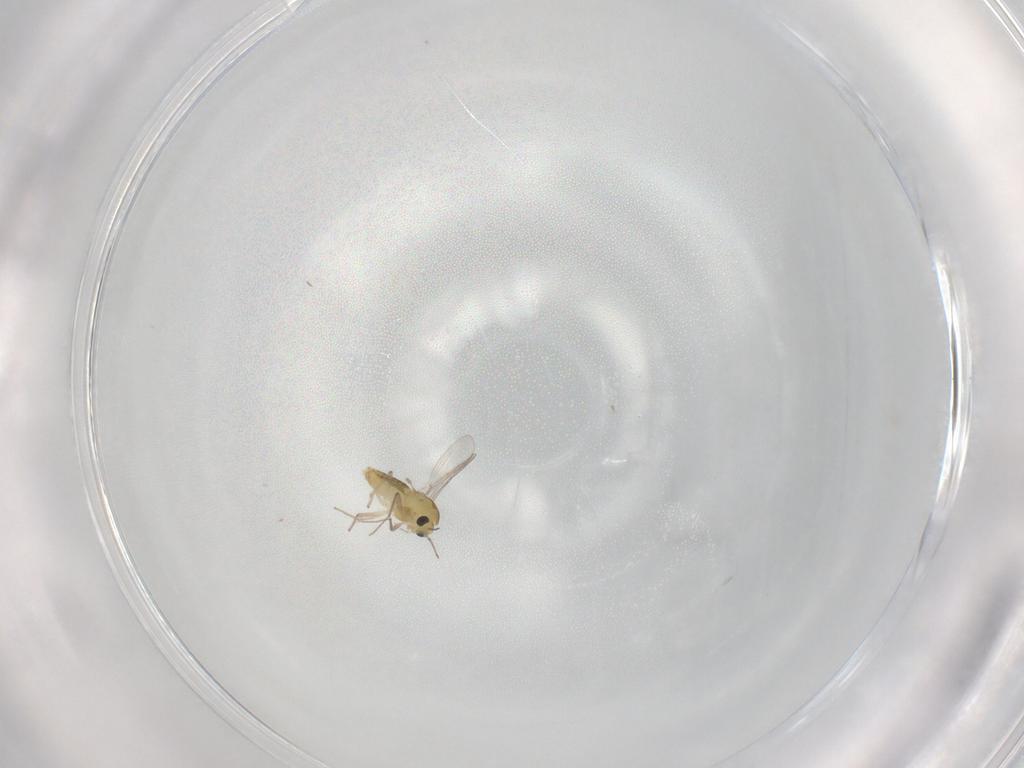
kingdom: Animalia
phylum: Arthropoda
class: Insecta
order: Diptera
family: Chironomidae
